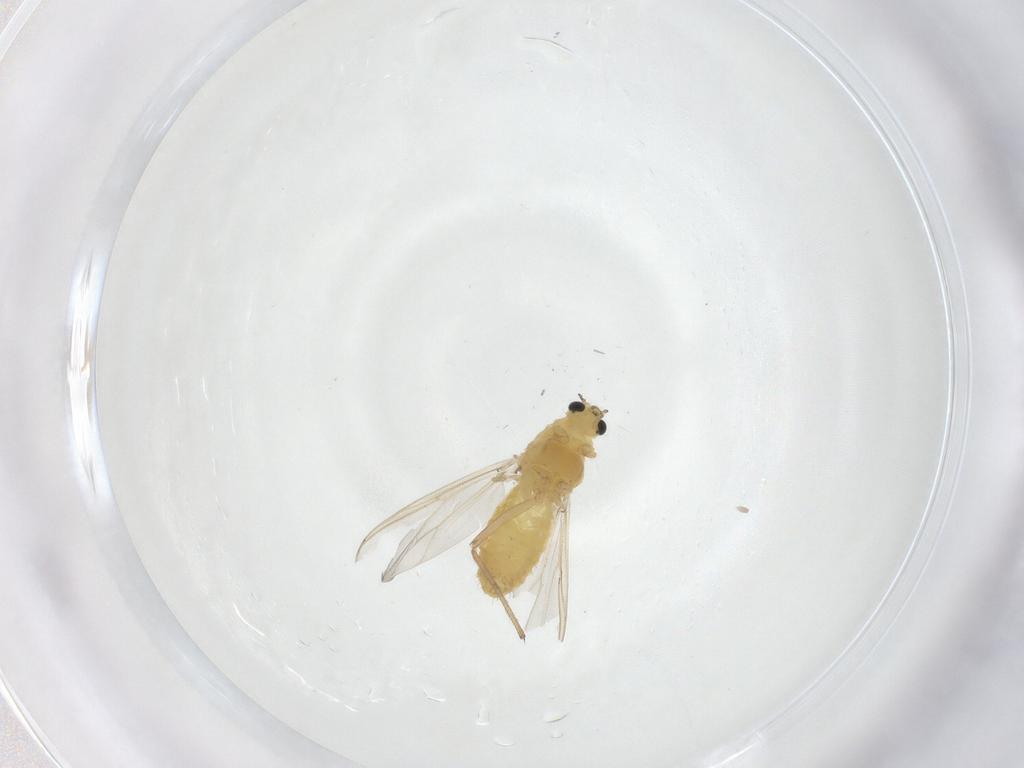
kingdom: Animalia
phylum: Arthropoda
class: Insecta
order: Diptera
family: Chironomidae
